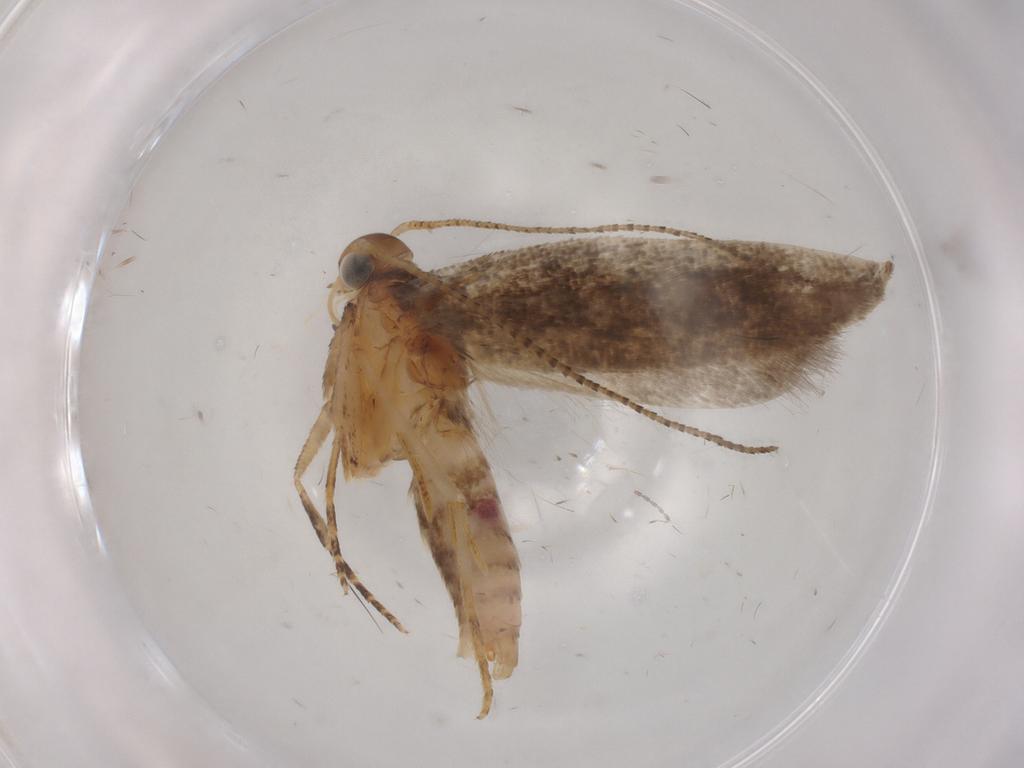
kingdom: Animalia
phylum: Arthropoda
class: Insecta
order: Lepidoptera
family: Gelechiidae
